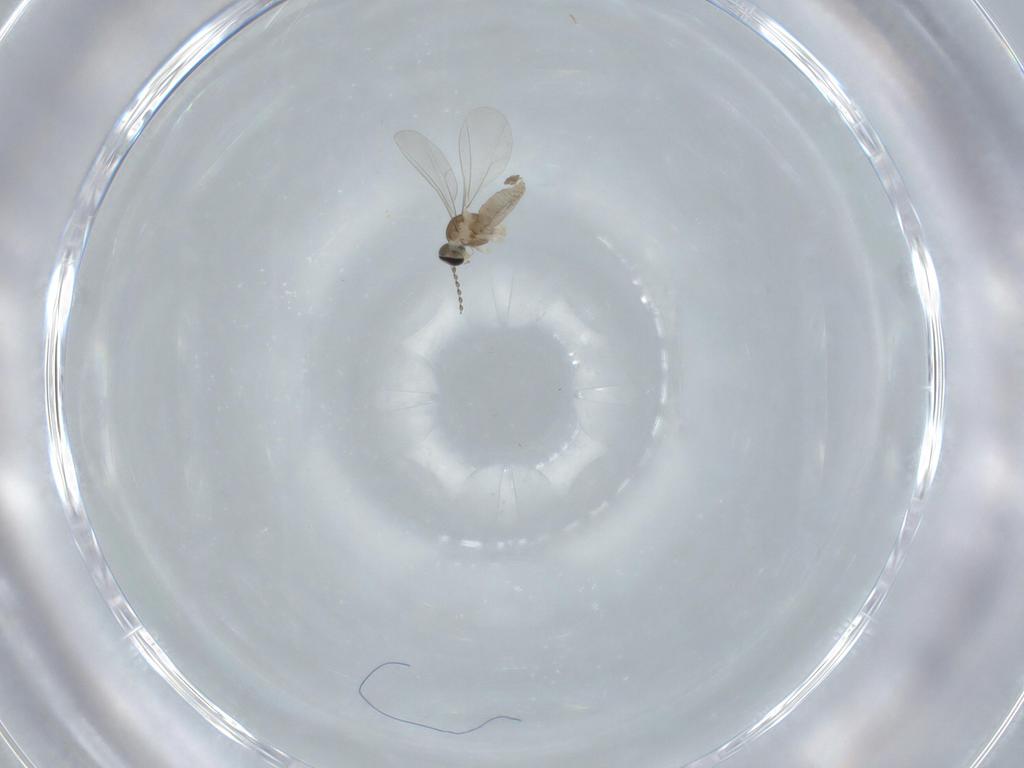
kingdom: Animalia
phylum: Arthropoda
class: Insecta
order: Diptera
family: Cecidomyiidae
